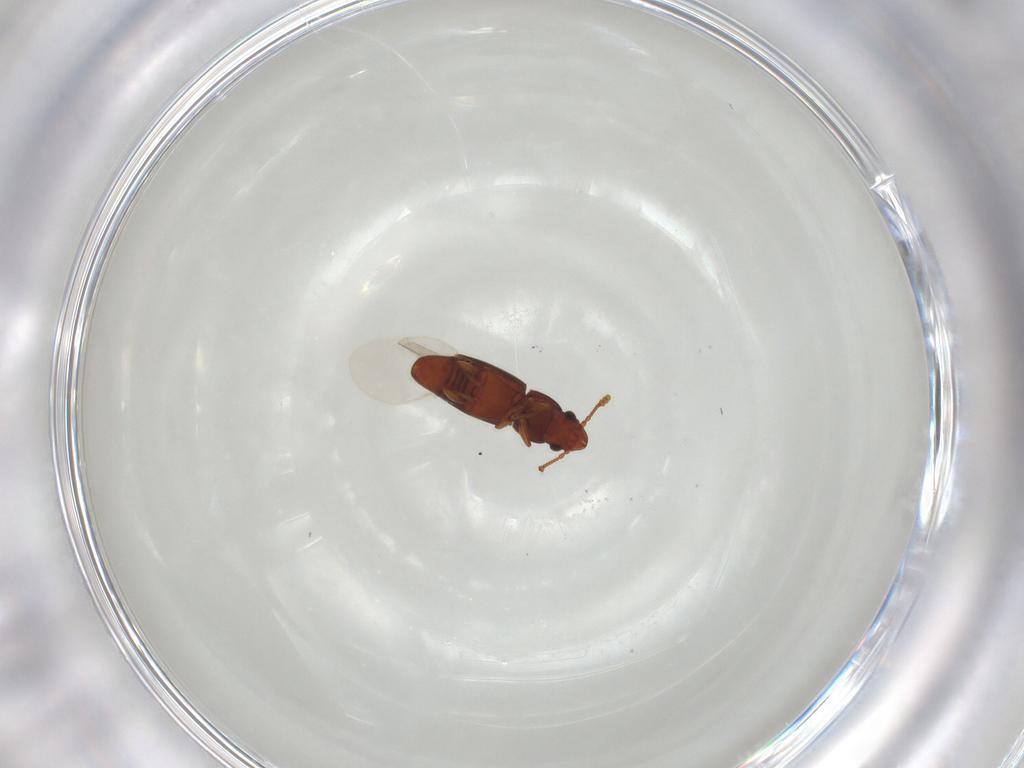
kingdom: Animalia
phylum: Arthropoda
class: Insecta
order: Coleoptera
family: Smicripidae
